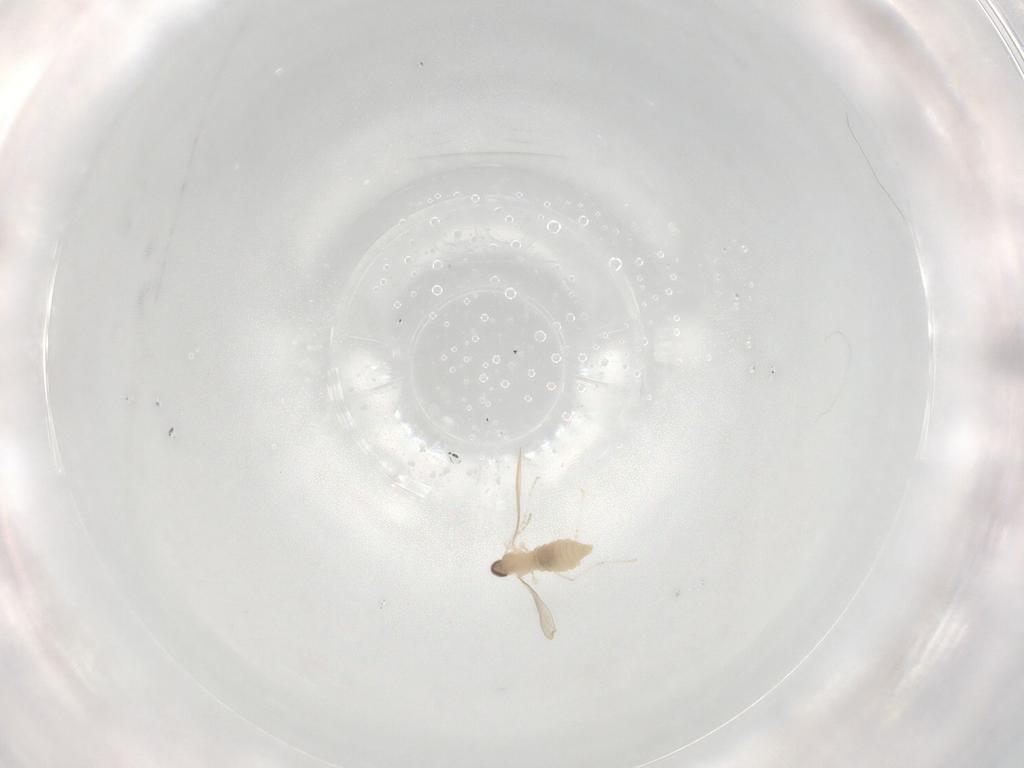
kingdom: Animalia
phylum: Arthropoda
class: Insecta
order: Diptera
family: Cecidomyiidae
